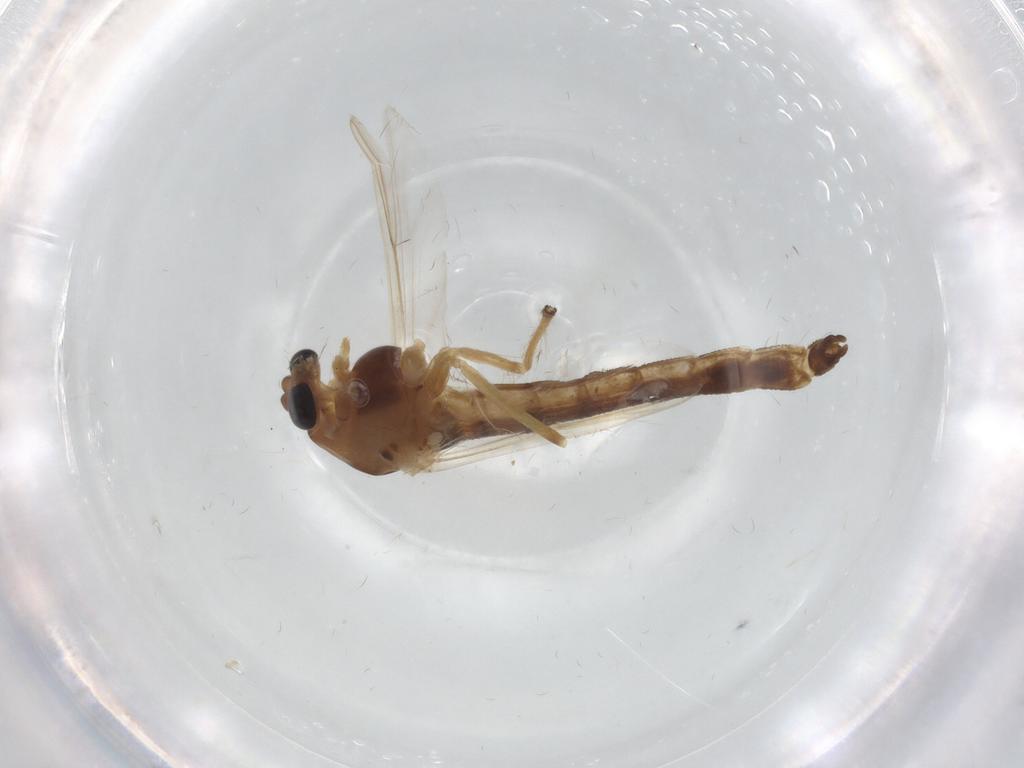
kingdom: Animalia
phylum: Arthropoda
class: Insecta
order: Diptera
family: Chironomidae
